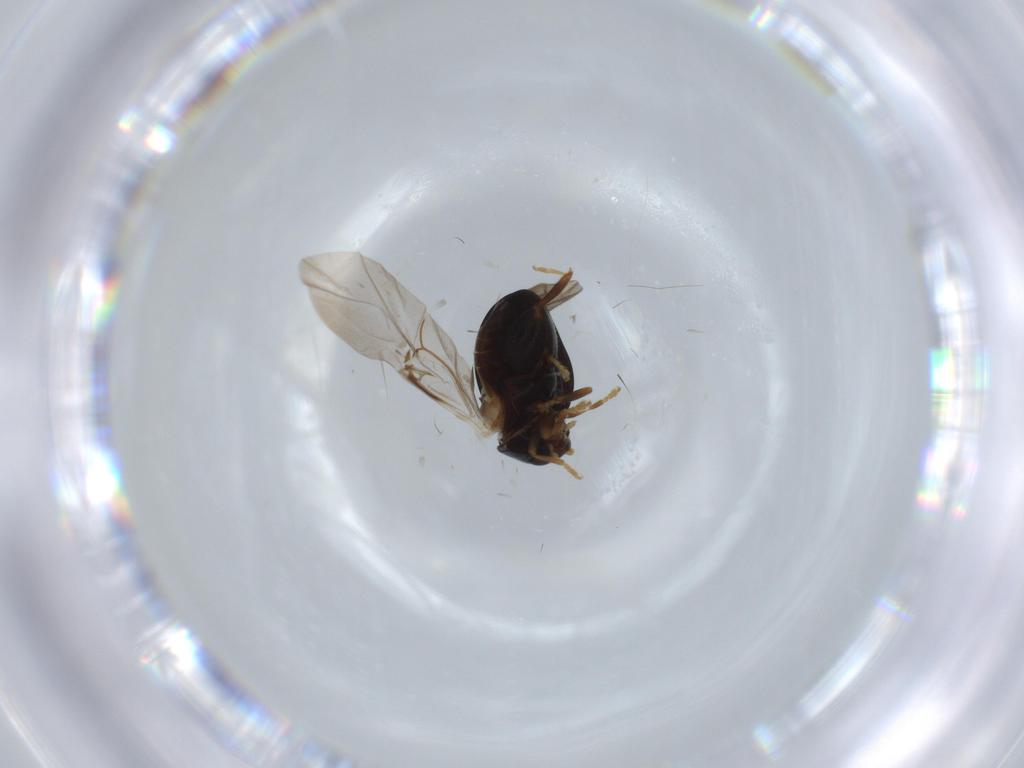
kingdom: Animalia
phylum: Arthropoda
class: Insecta
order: Coleoptera
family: Chrysomelidae
